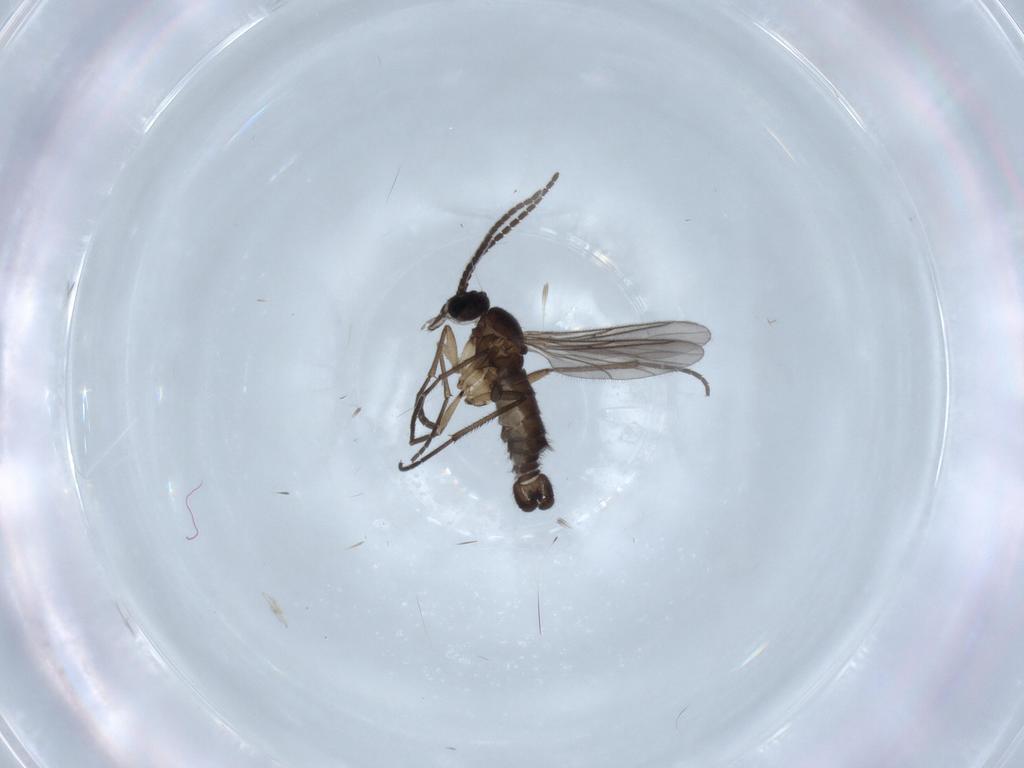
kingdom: Animalia
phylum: Arthropoda
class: Insecta
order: Diptera
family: Sciaridae
